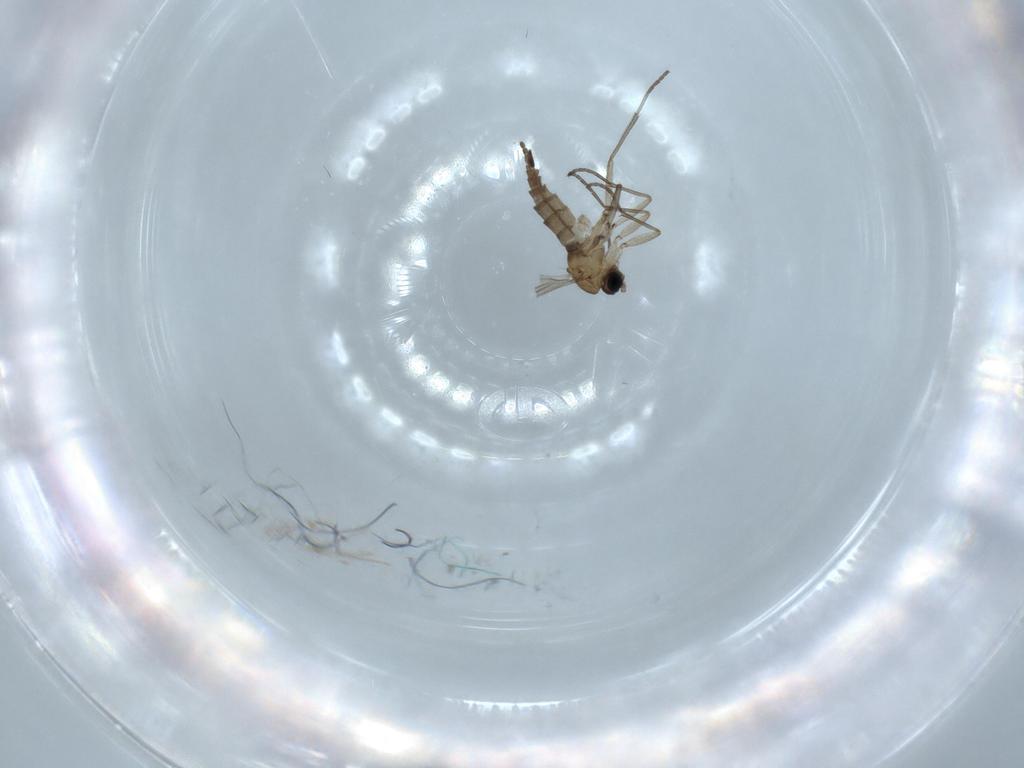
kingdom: Animalia
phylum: Arthropoda
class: Insecta
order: Diptera
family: Sciaridae
